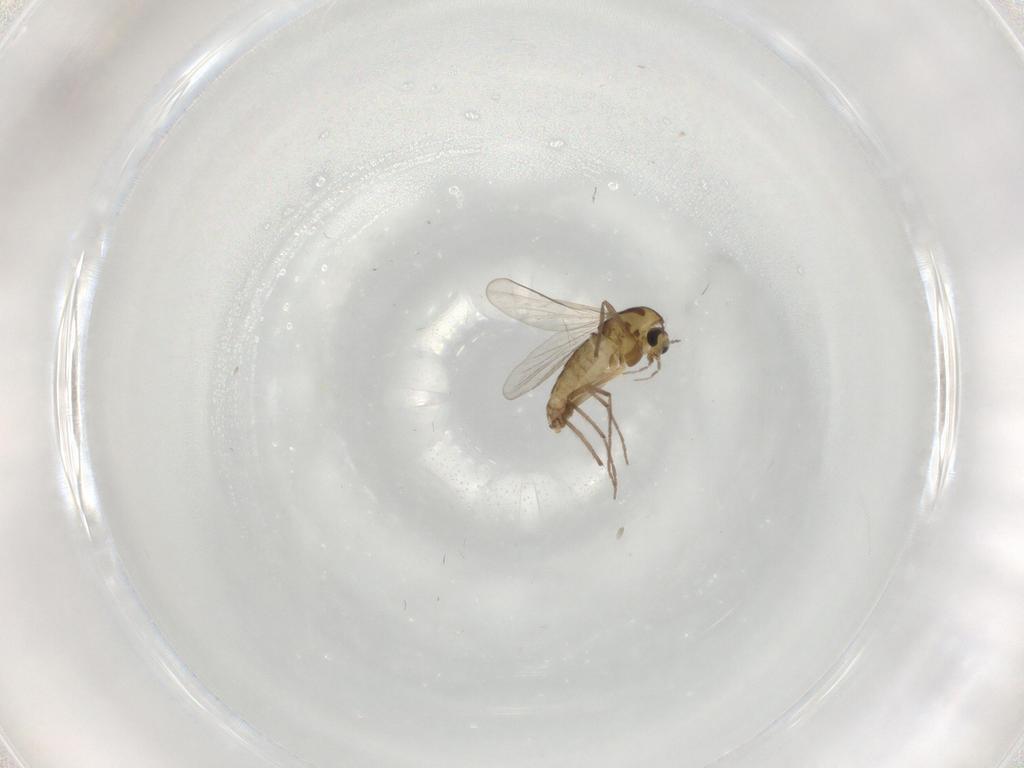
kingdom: Animalia
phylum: Arthropoda
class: Insecta
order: Diptera
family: Chironomidae
